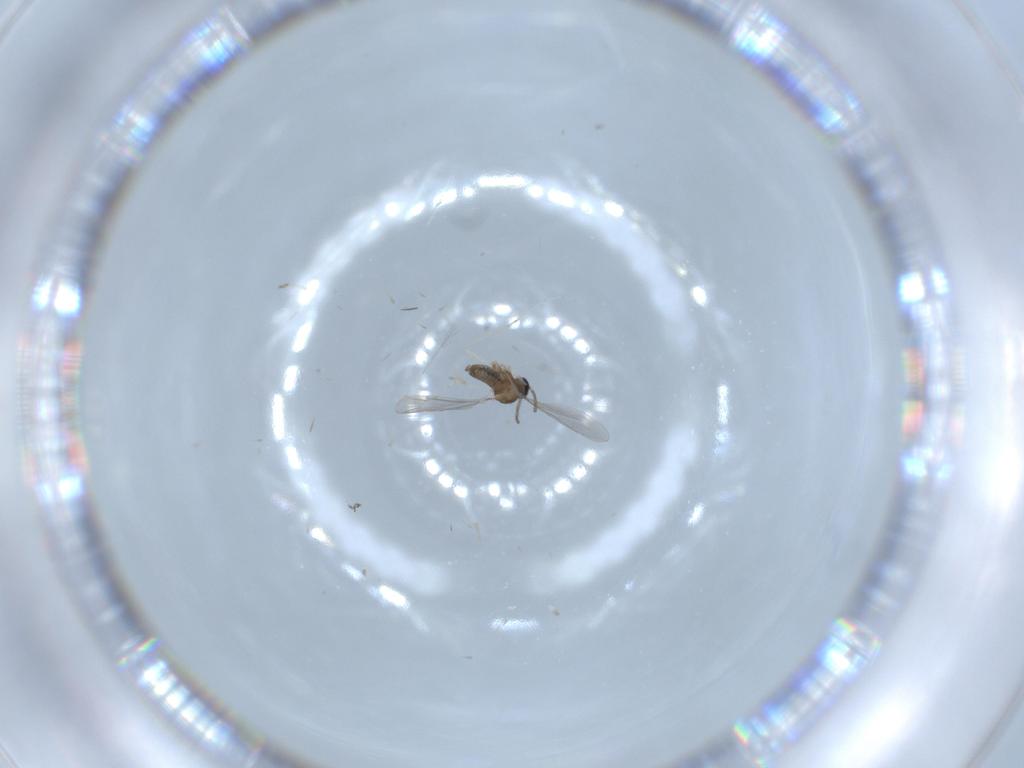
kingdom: Animalia
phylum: Arthropoda
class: Insecta
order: Diptera
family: Cecidomyiidae
